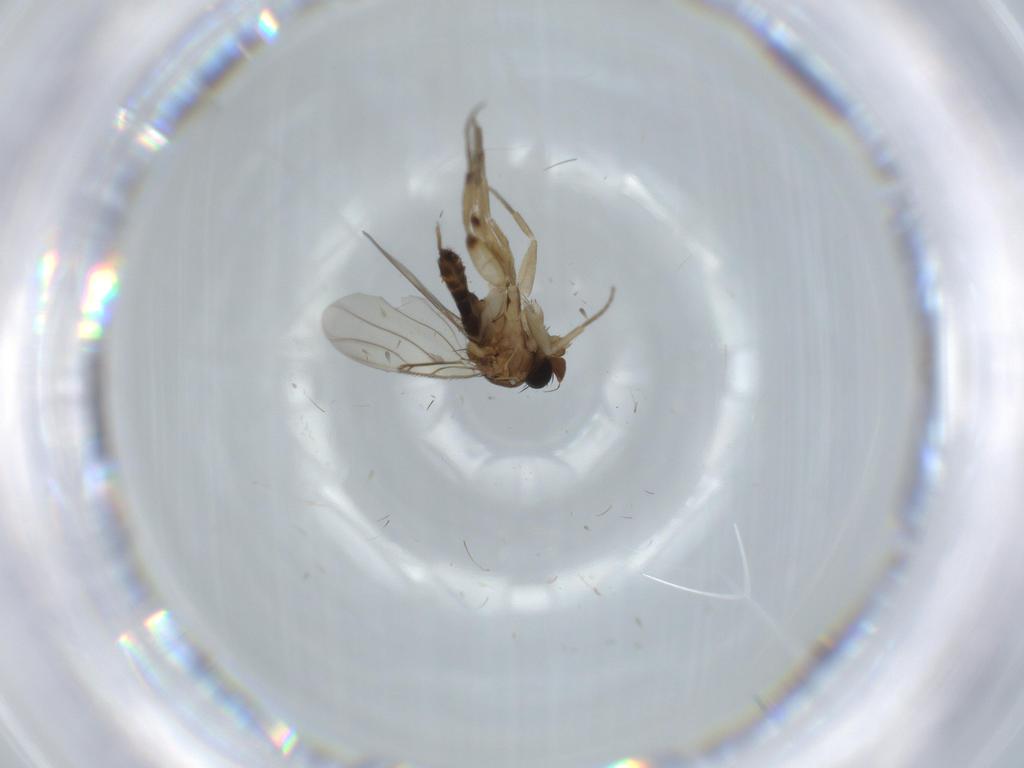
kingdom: Animalia
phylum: Arthropoda
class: Insecta
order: Diptera
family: Phoridae
